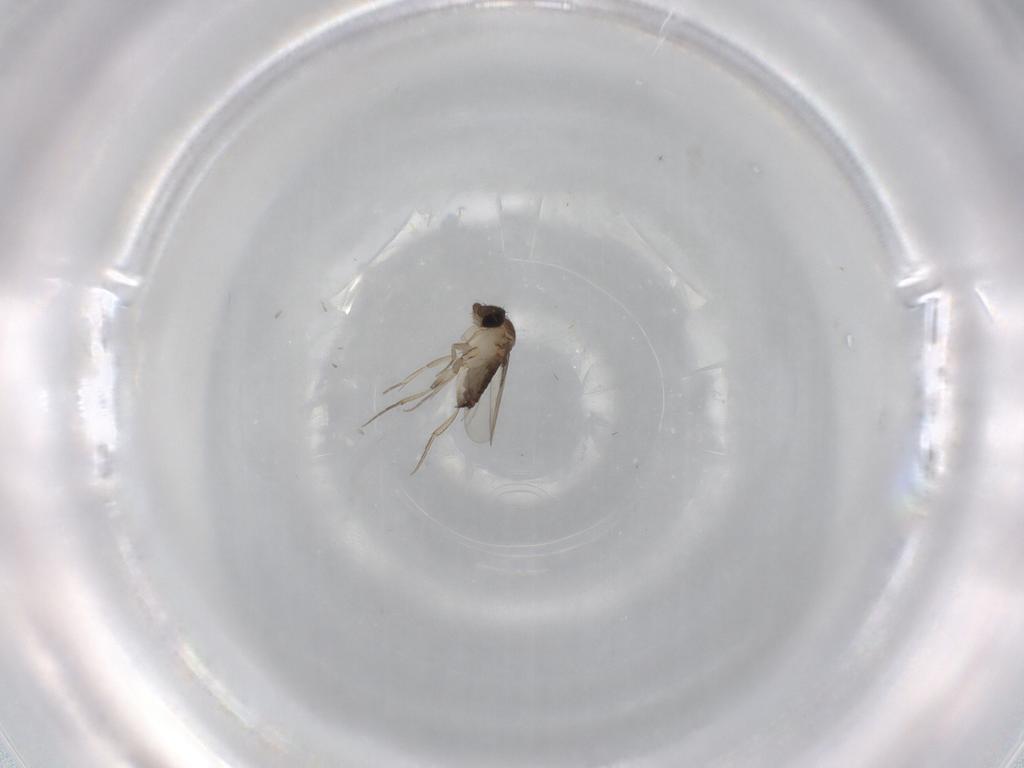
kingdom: Animalia
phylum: Arthropoda
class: Insecta
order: Diptera
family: Phoridae
